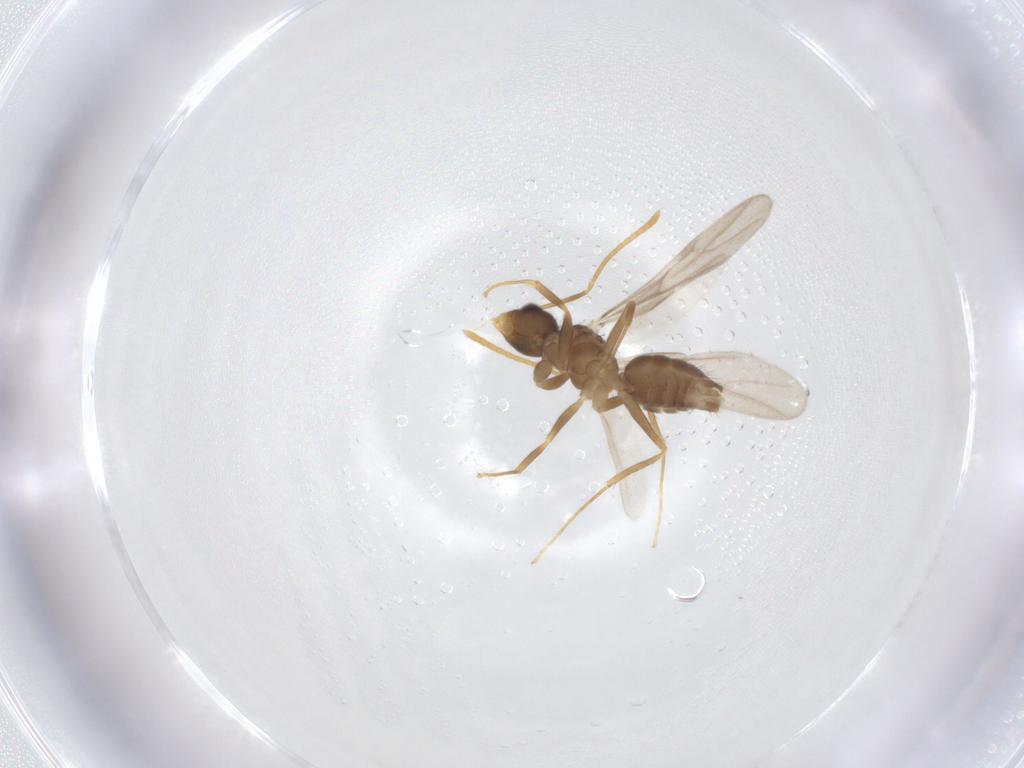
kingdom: Animalia
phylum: Arthropoda
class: Insecta
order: Hymenoptera
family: Formicidae
